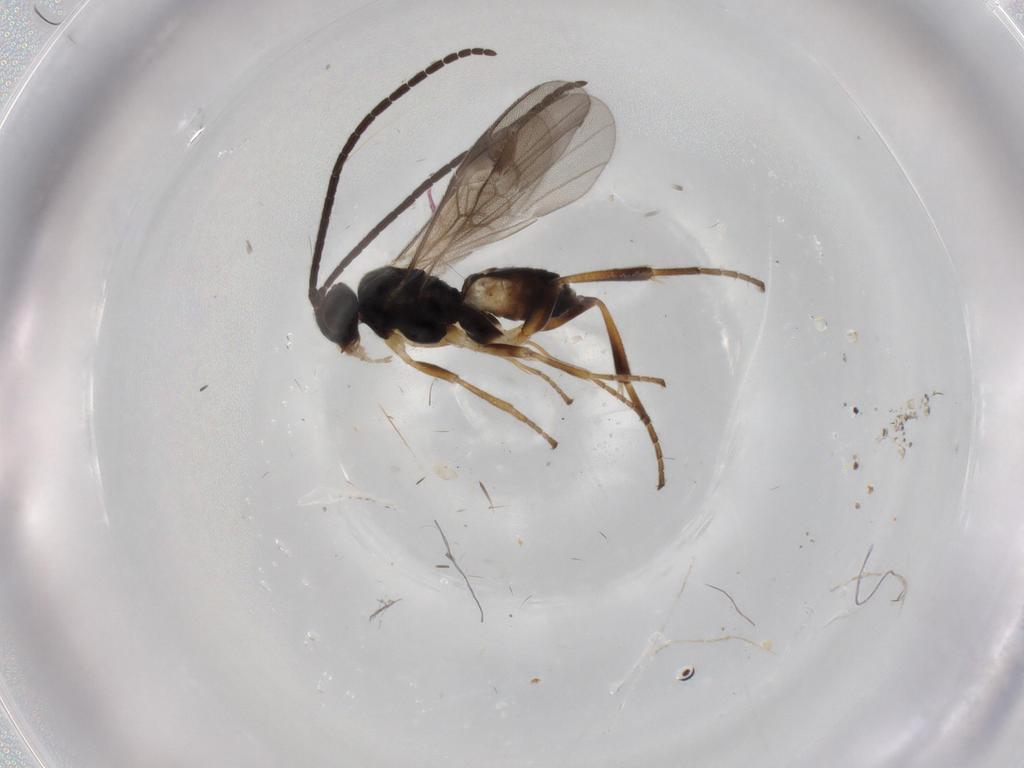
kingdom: Animalia
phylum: Arthropoda
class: Insecta
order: Hymenoptera
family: Braconidae
